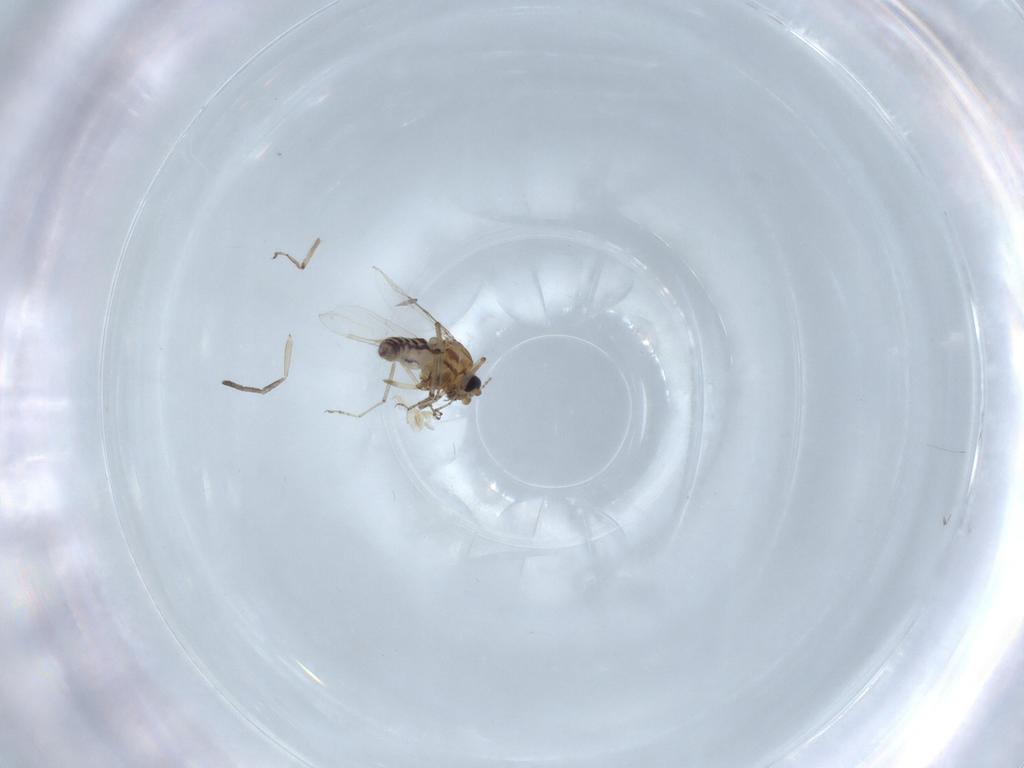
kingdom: Animalia
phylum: Arthropoda
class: Insecta
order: Diptera
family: Ceratopogonidae
